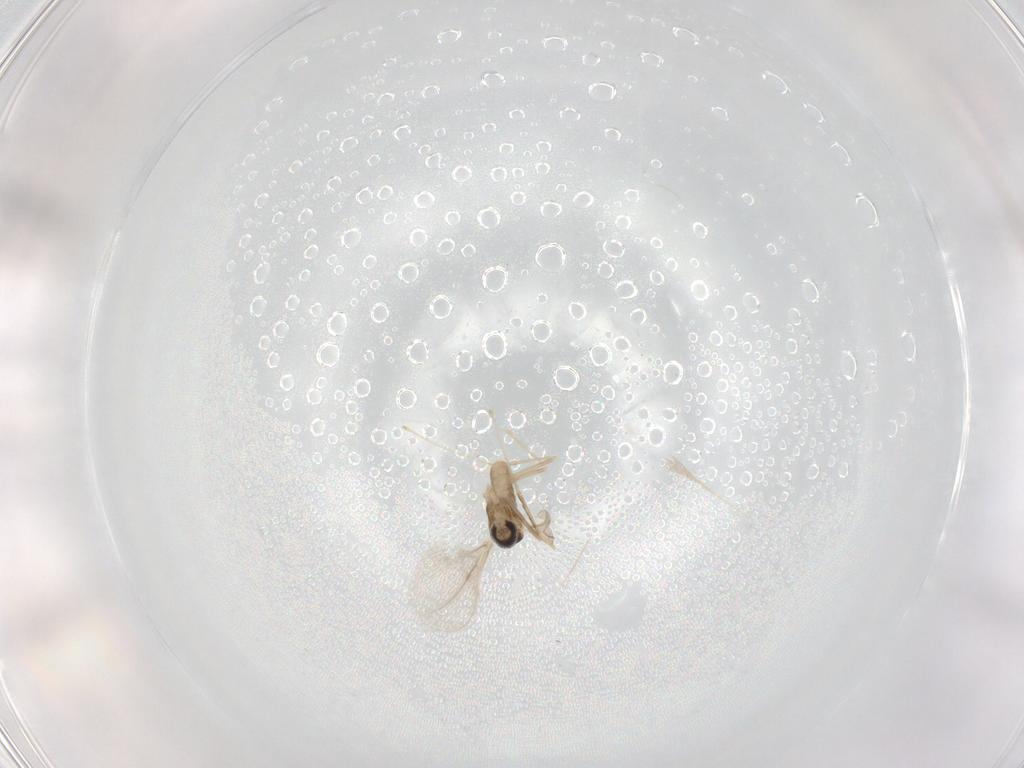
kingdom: Animalia
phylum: Arthropoda
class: Insecta
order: Diptera
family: Cecidomyiidae
